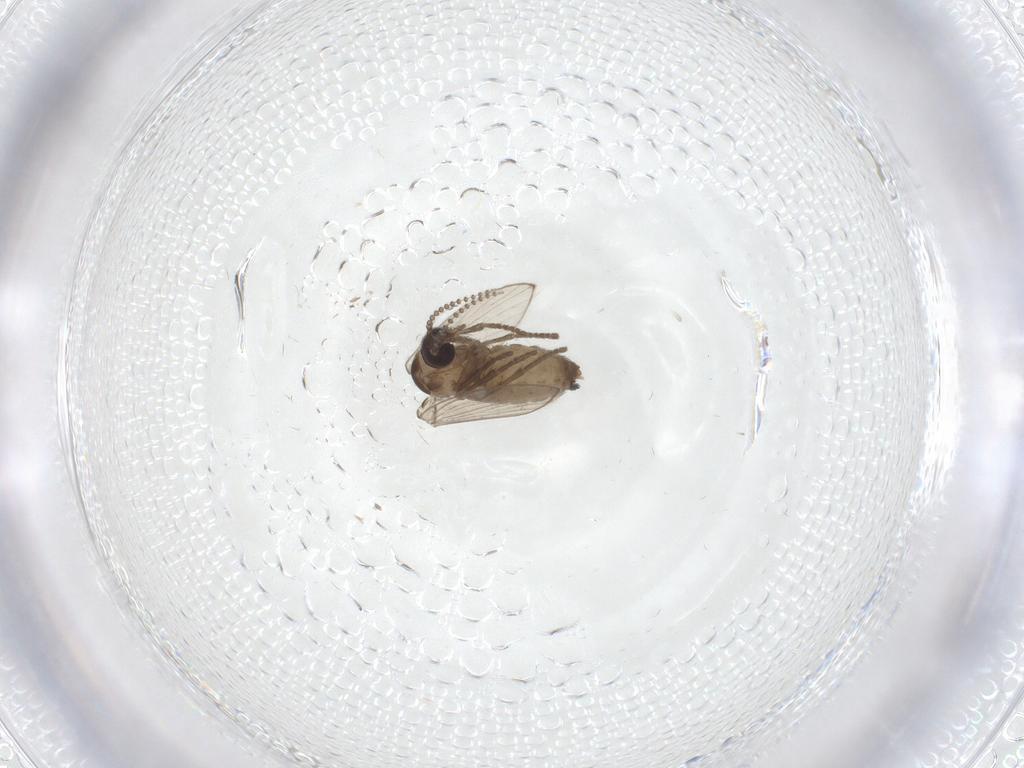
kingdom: Animalia
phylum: Arthropoda
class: Insecta
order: Diptera
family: Psychodidae
